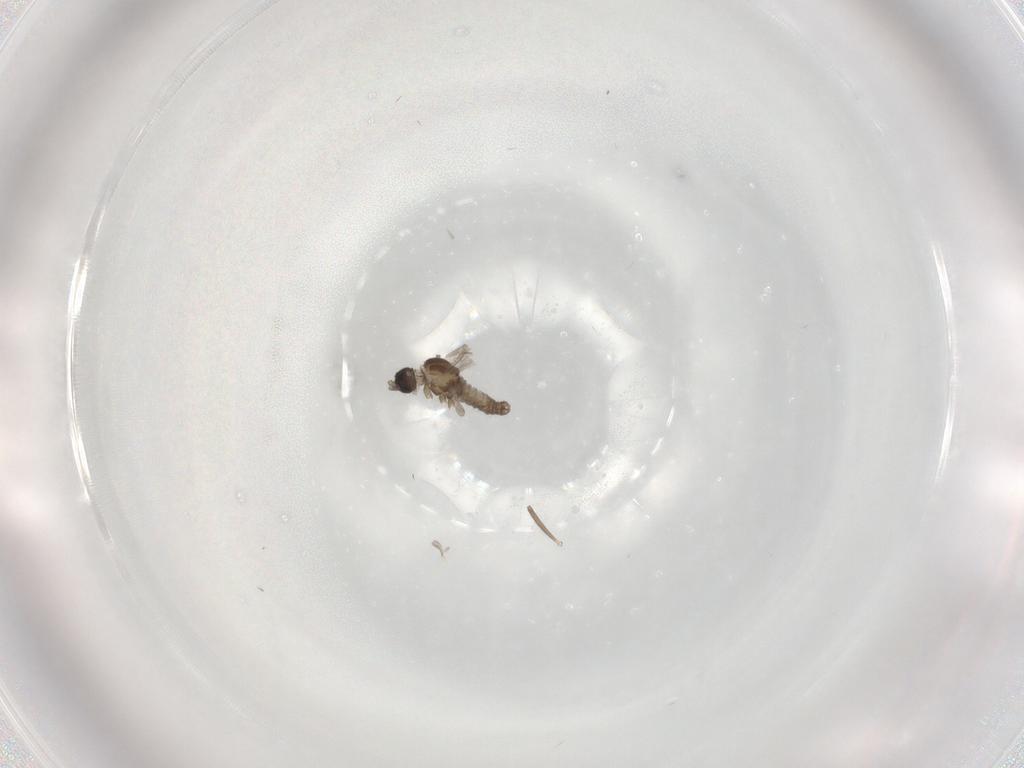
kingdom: Animalia
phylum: Arthropoda
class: Insecta
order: Diptera
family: Cecidomyiidae
